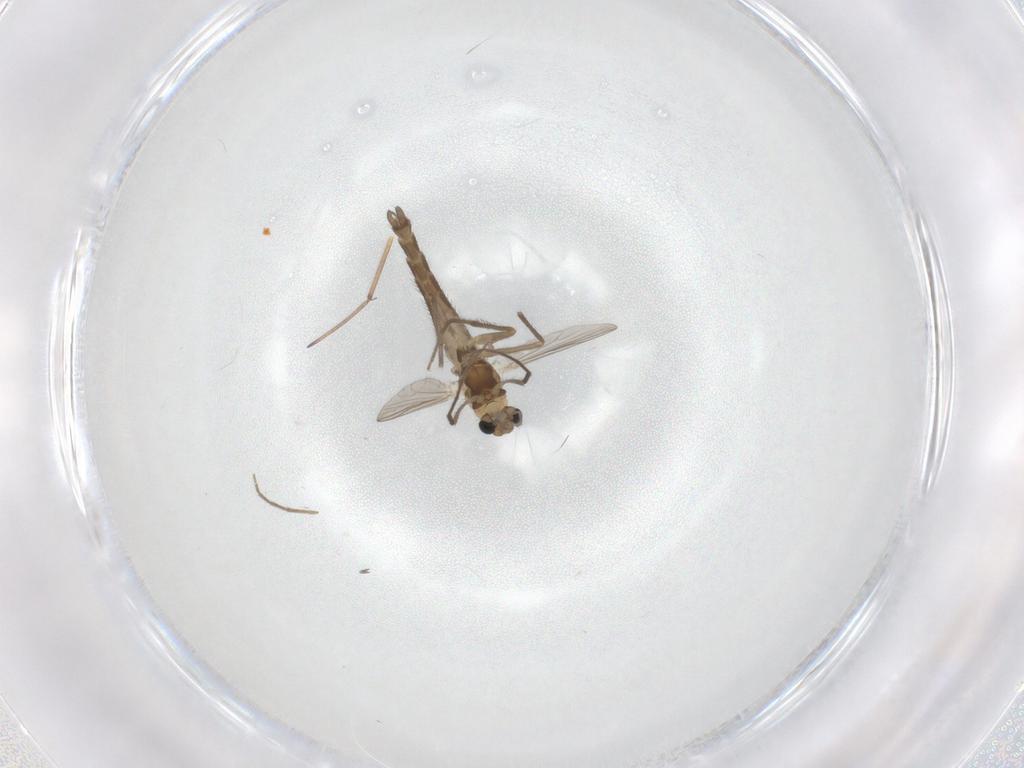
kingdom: Animalia
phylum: Arthropoda
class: Insecta
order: Diptera
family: Chironomidae
